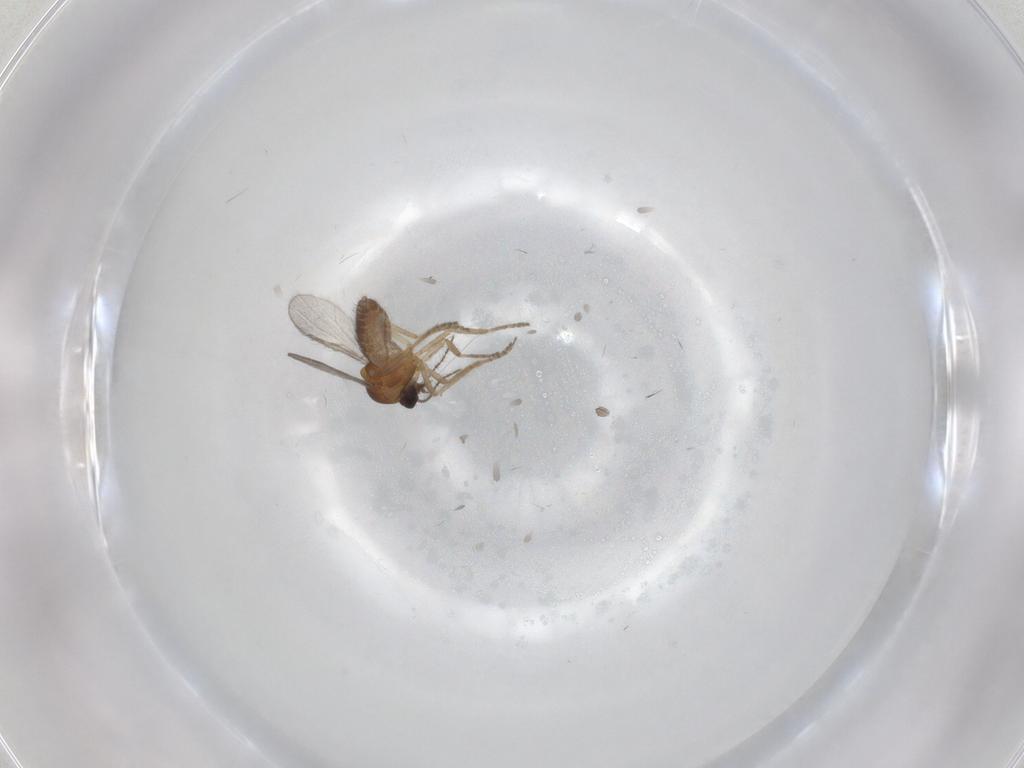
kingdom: Animalia
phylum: Arthropoda
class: Insecta
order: Diptera
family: Ceratopogonidae
